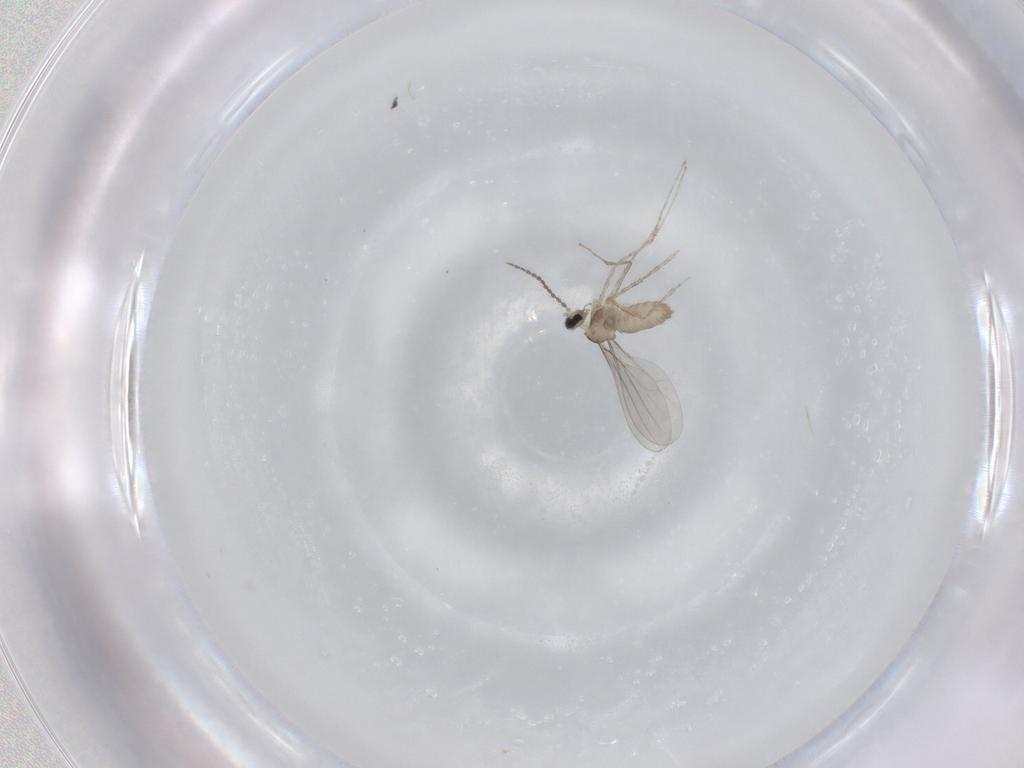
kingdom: Animalia
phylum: Arthropoda
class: Insecta
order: Diptera
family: Cecidomyiidae
